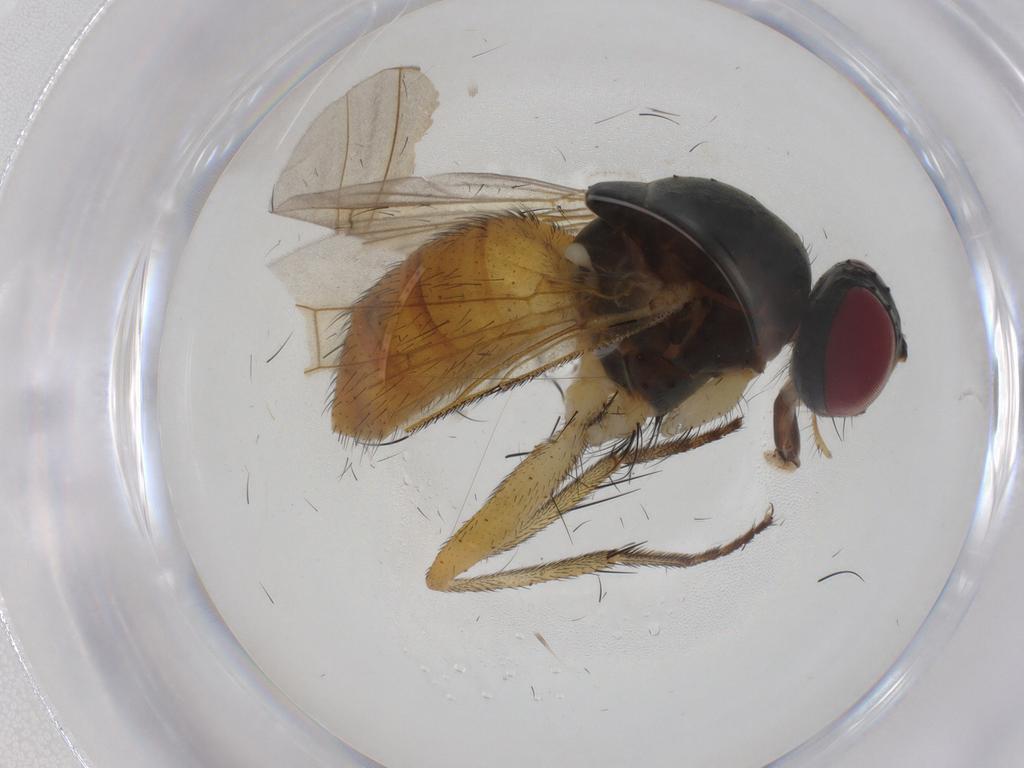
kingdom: Animalia
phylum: Arthropoda
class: Insecta
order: Diptera
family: Muscidae
